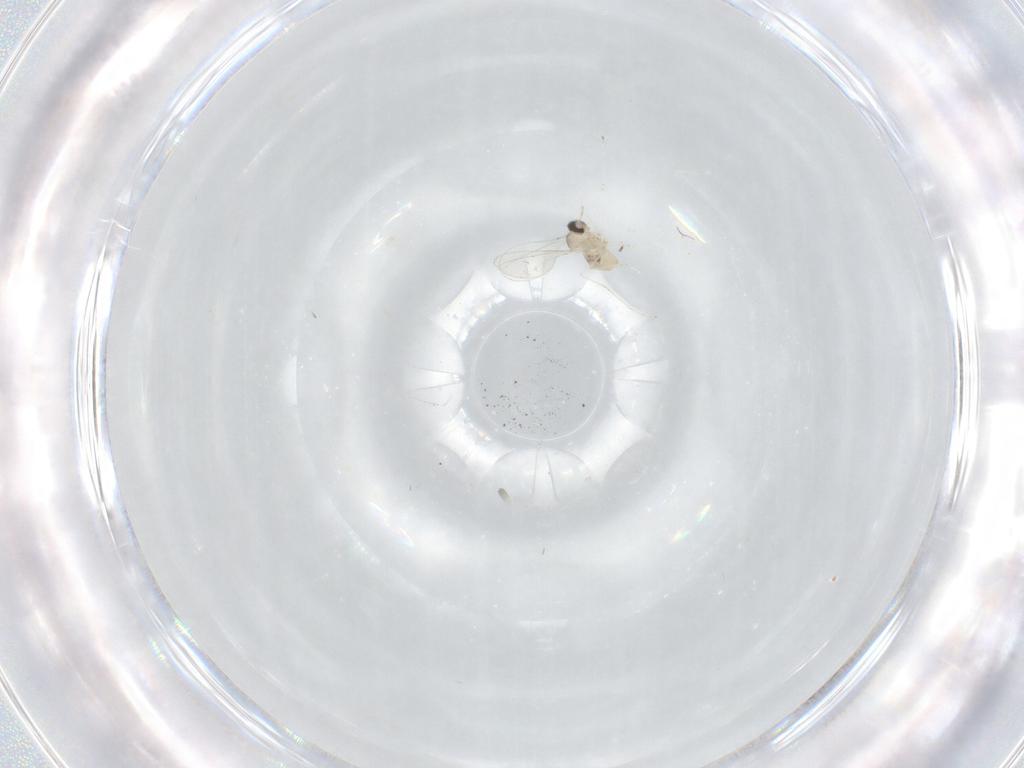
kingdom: Animalia
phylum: Arthropoda
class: Insecta
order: Diptera
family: Cecidomyiidae
